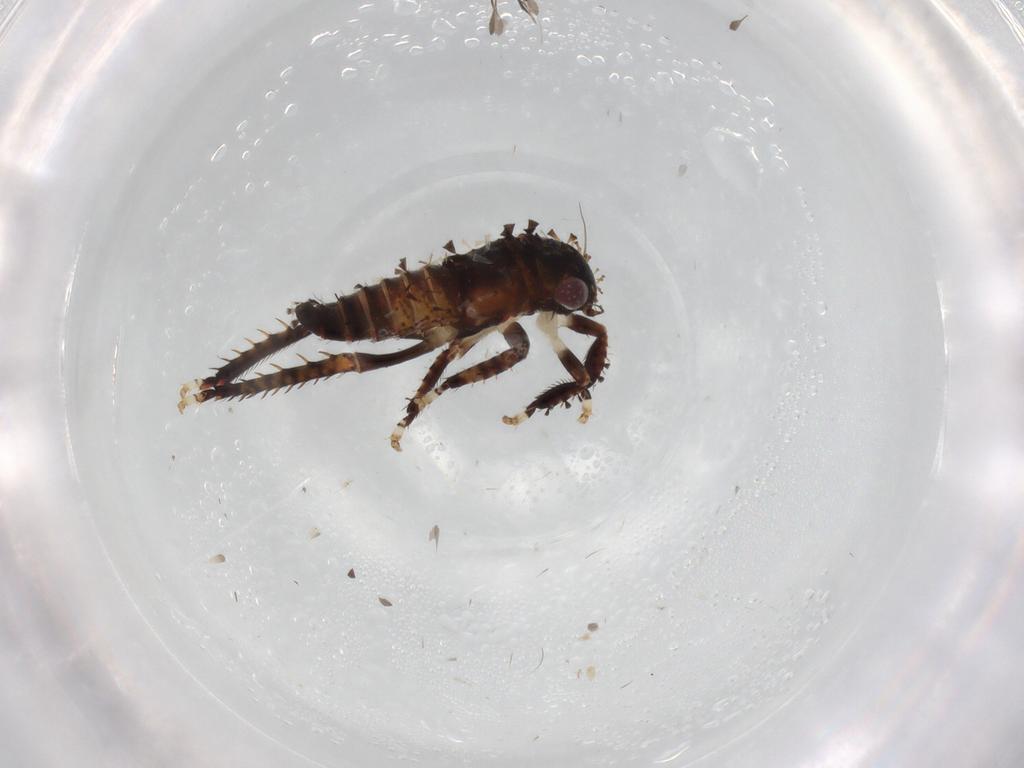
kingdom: Animalia
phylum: Arthropoda
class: Insecta
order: Hemiptera
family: Cicadellidae
